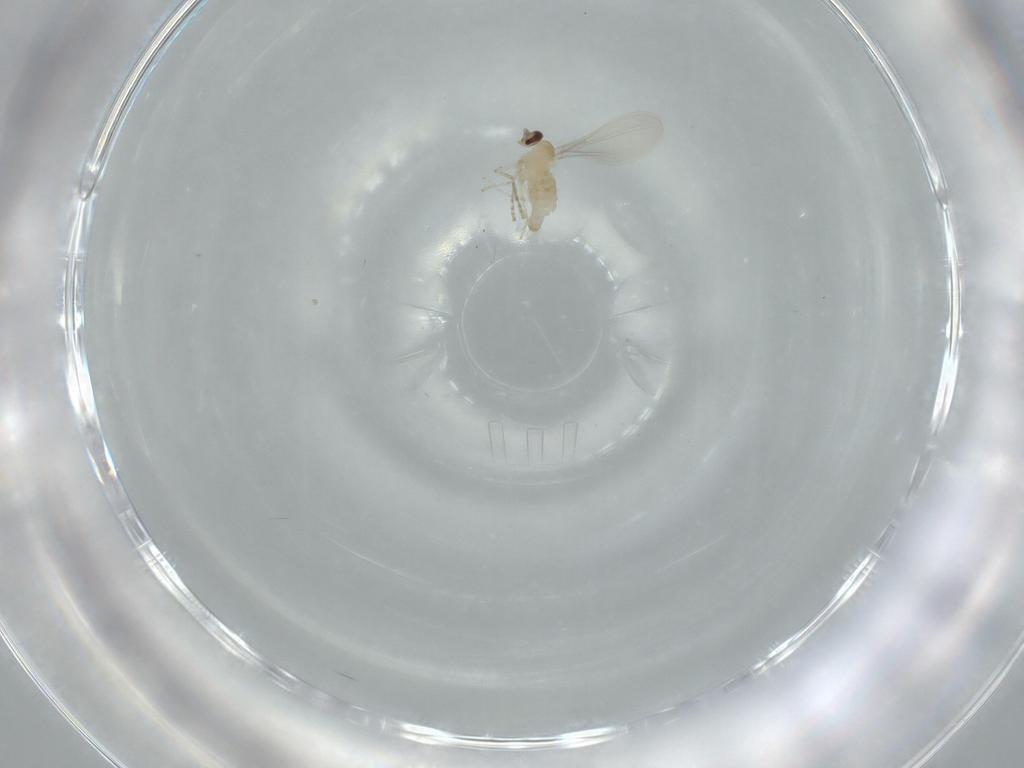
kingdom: Animalia
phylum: Arthropoda
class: Insecta
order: Diptera
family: Cecidomyiidae
